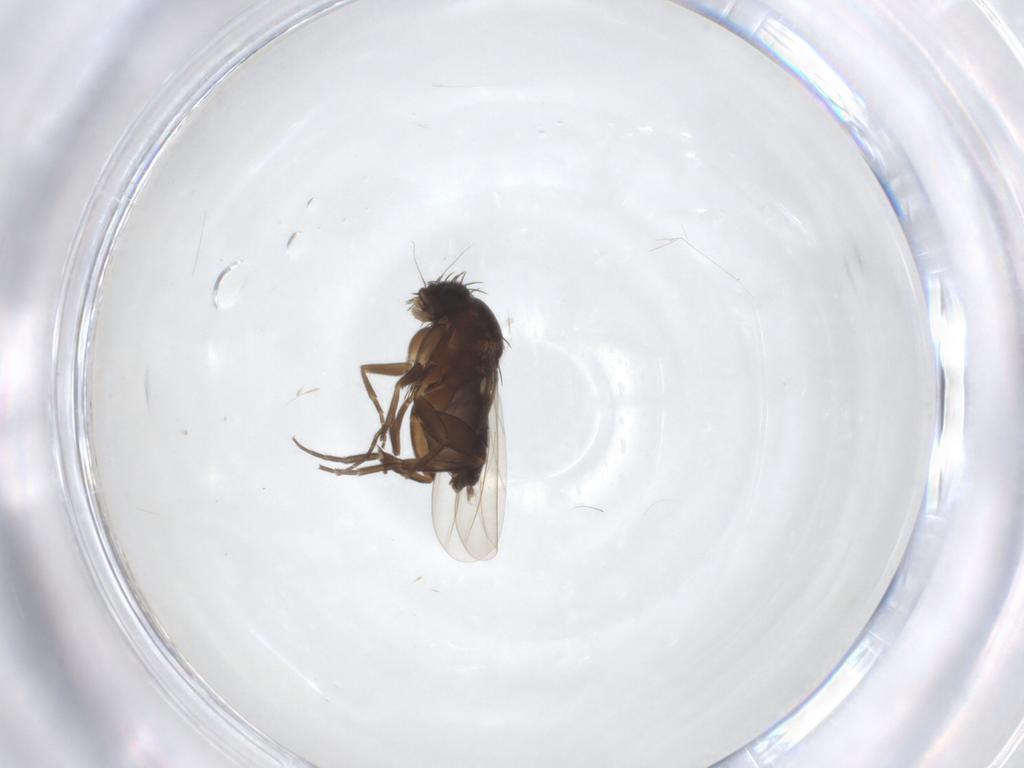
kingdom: Animalia
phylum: Arthropoda
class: Insecta
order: Diptera
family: Phoridae
